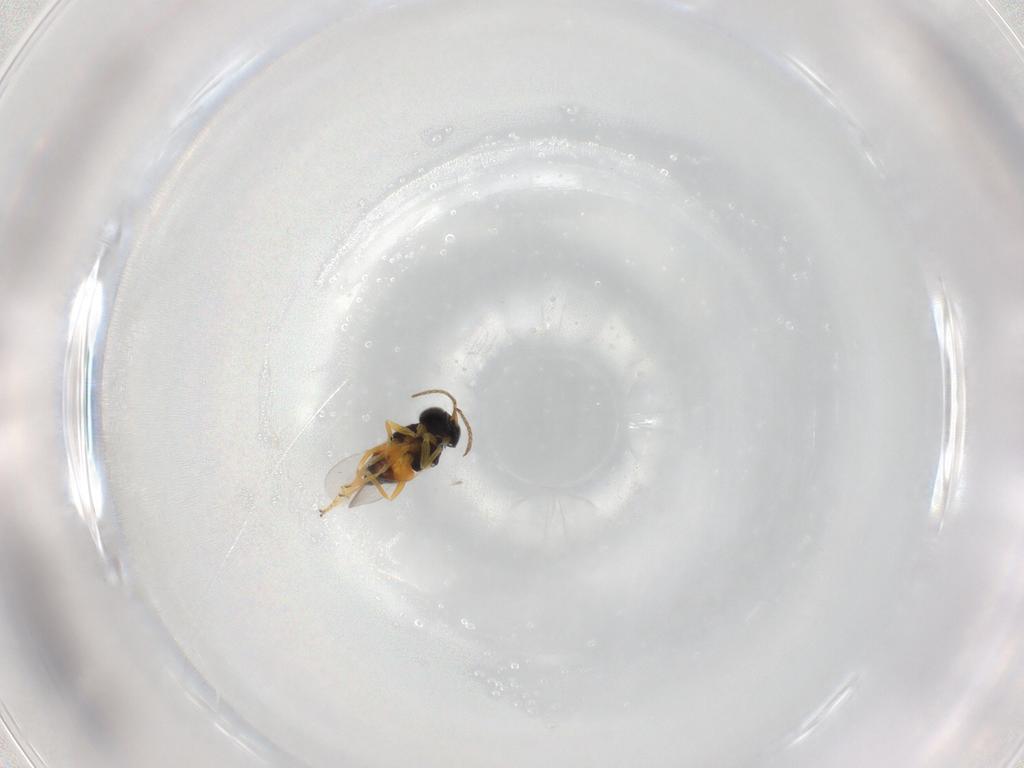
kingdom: Animalia
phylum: Arthropoda
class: Insecta
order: Hymenoptera
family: Encyrtidae
